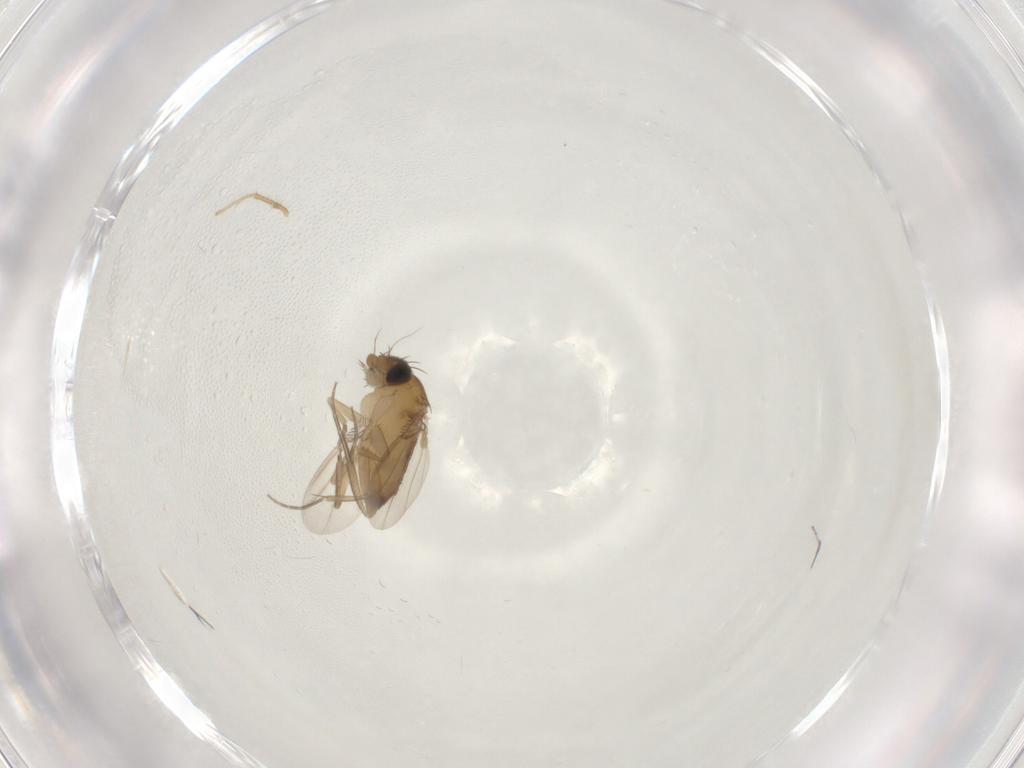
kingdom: Animalia
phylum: Arthropoda
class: Insecta
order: Diptera
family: Phoridae
